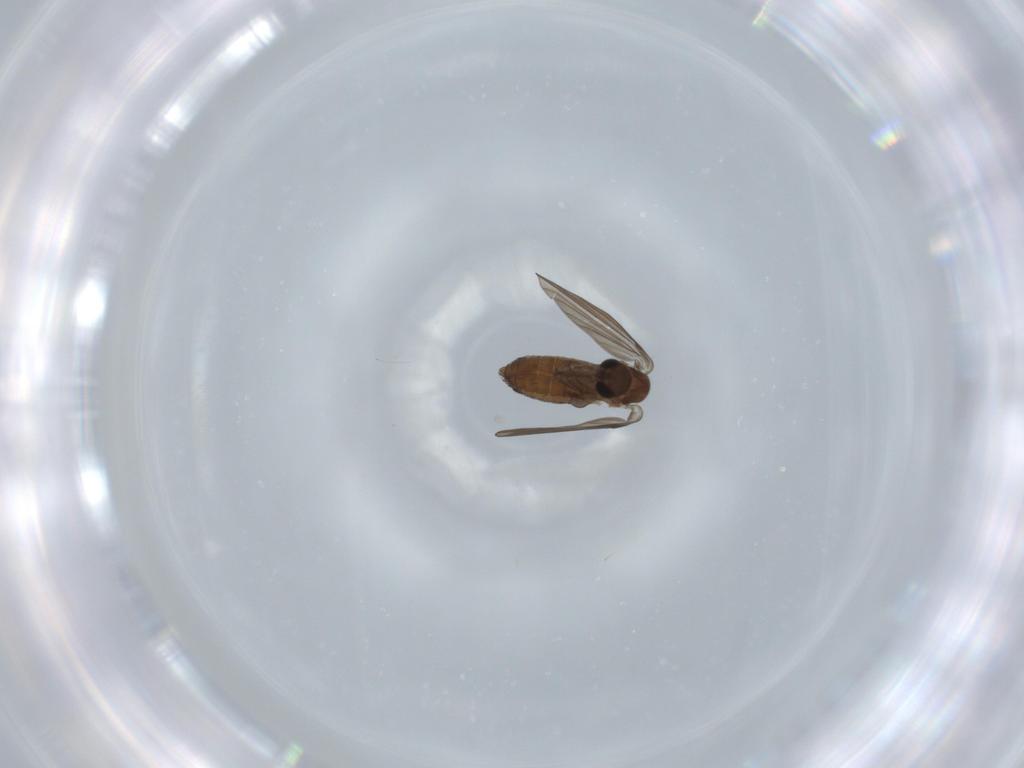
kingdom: Animalia
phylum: Arthropoda
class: Insecta
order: Diptera
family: Psychodidae
